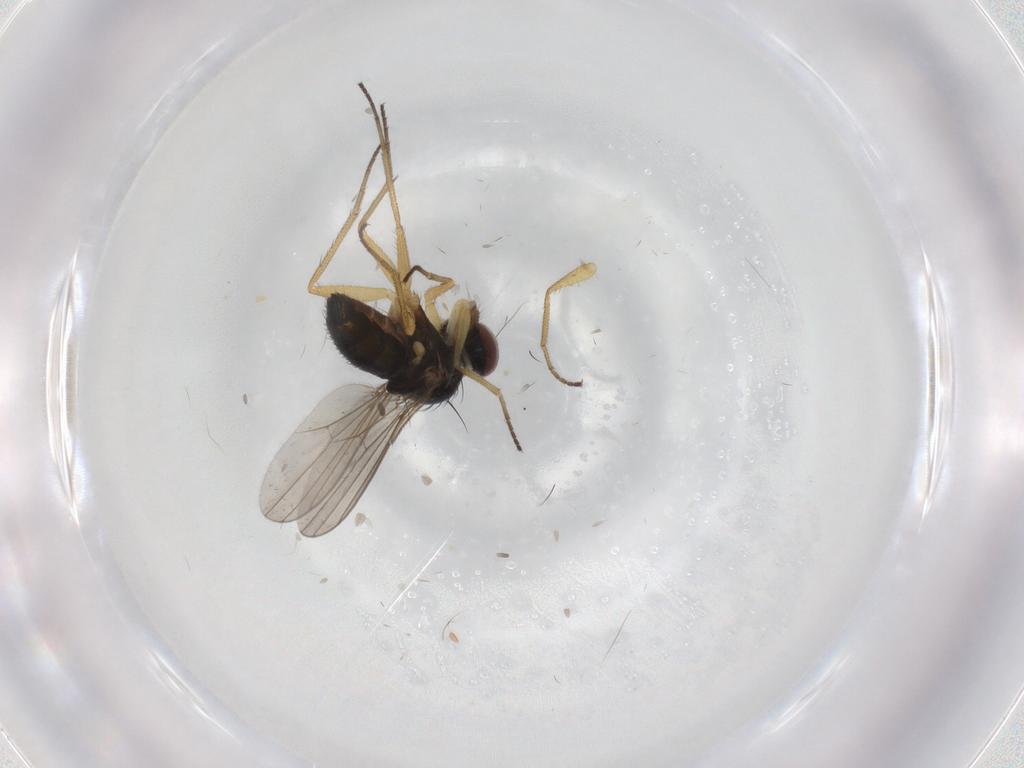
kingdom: Animalia
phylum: Arthropoda
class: Insecta
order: Diptera
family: Dolichopodidae
